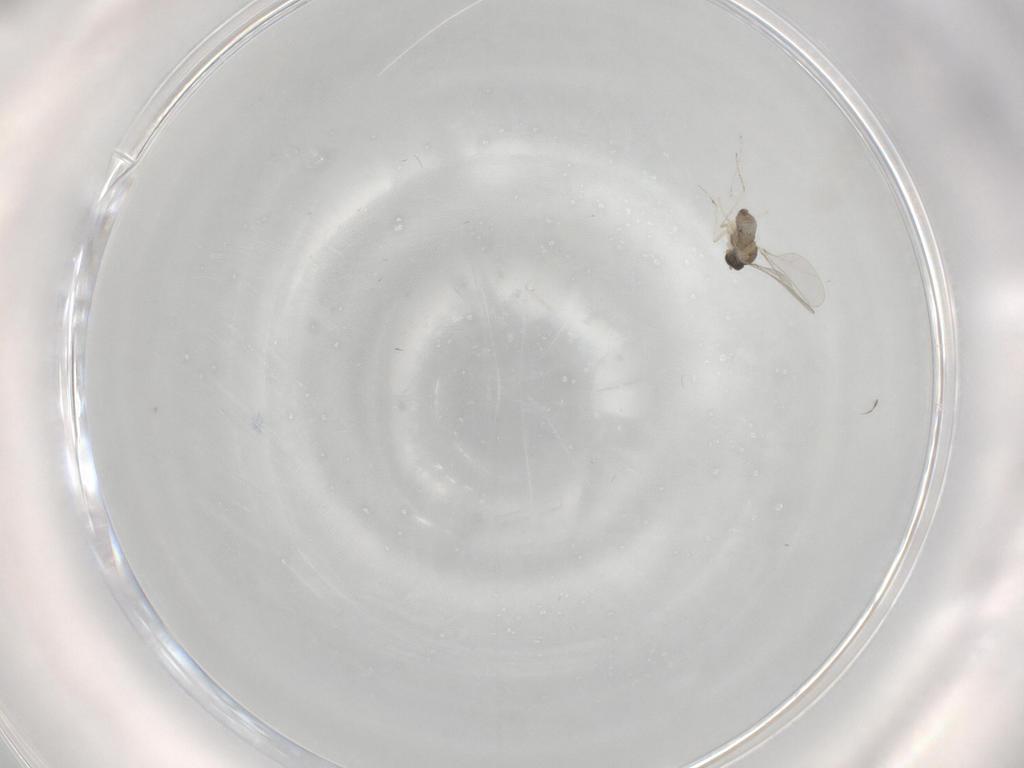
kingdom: Animalia
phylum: Arthropoda
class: Insecta
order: Diptera
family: Cecidomyiidae
